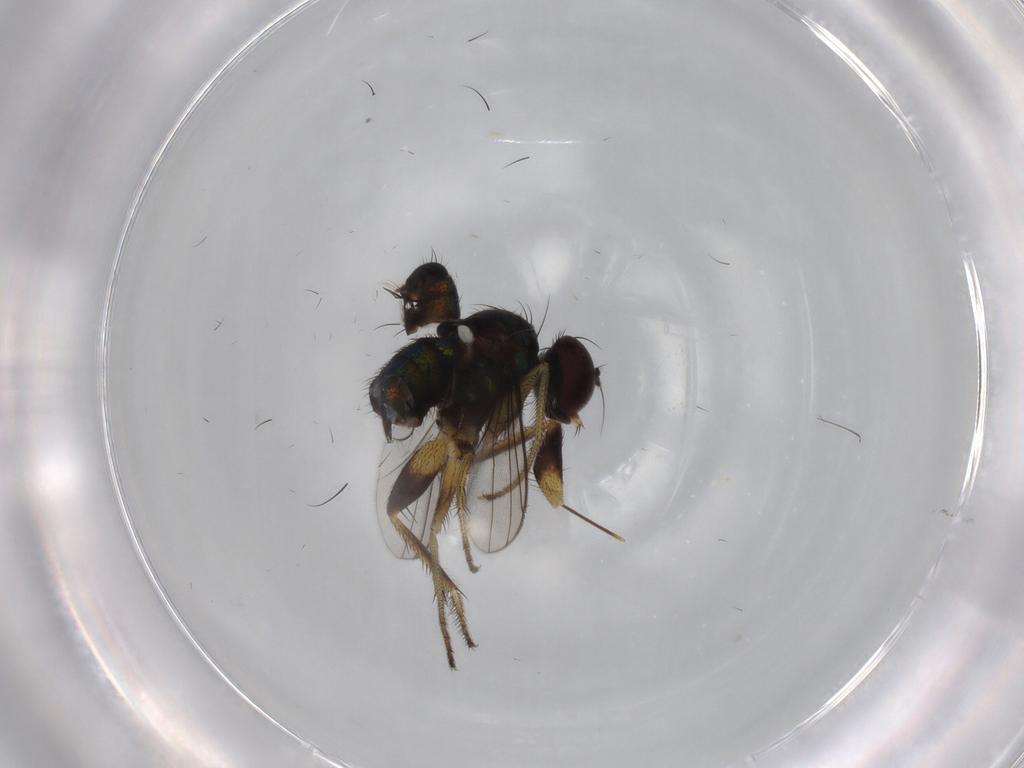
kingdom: Animalia
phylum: Arthropoda
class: Insecta
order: Diptera
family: Dolichopodidae
